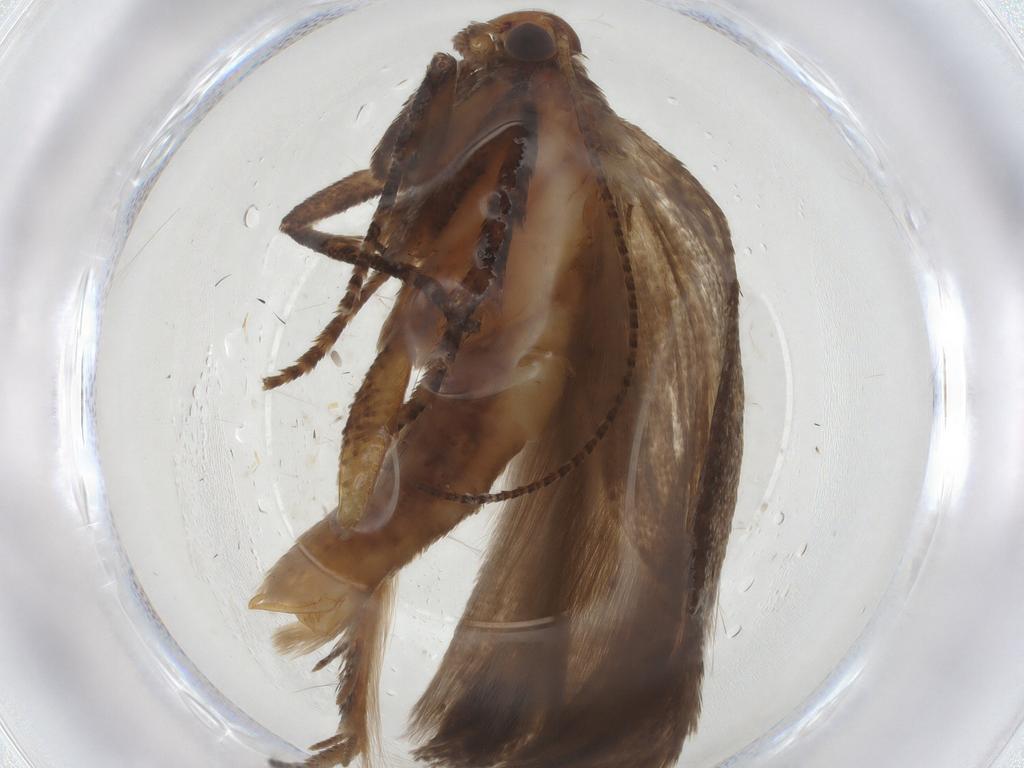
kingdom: Animalia
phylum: Arthropoda
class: Insecta
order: Lepidoptera
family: Gelechiidae
